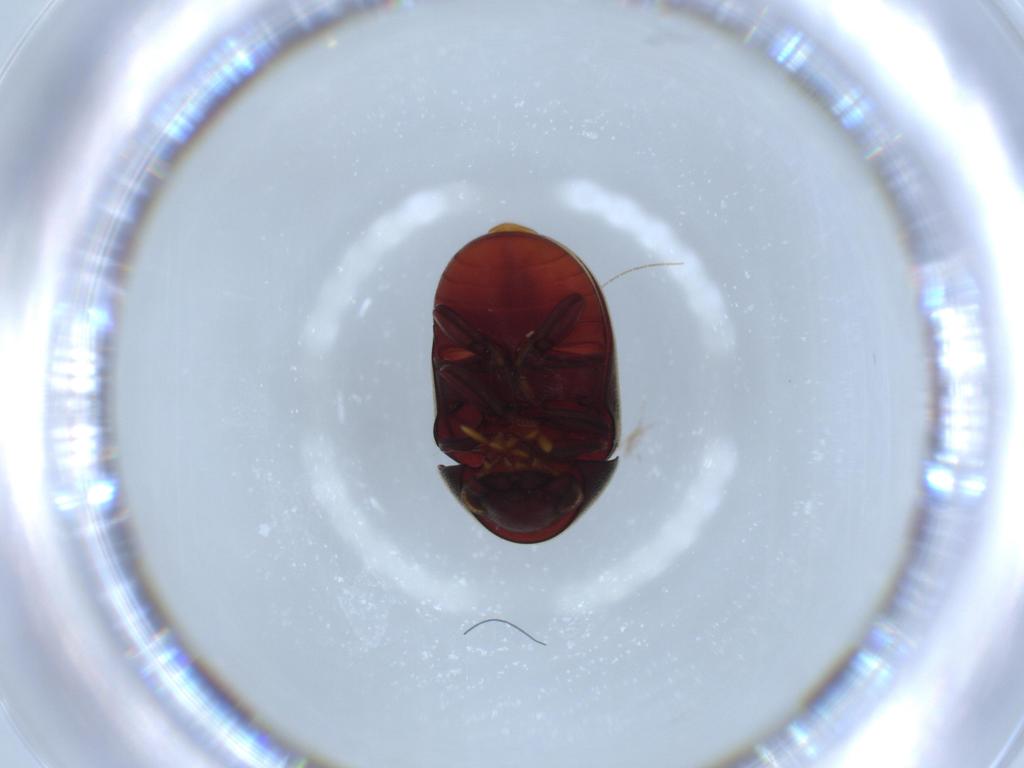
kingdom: Animalia
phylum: Arthropoda
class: Insecta
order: Coleoptera
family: Ptinidae
